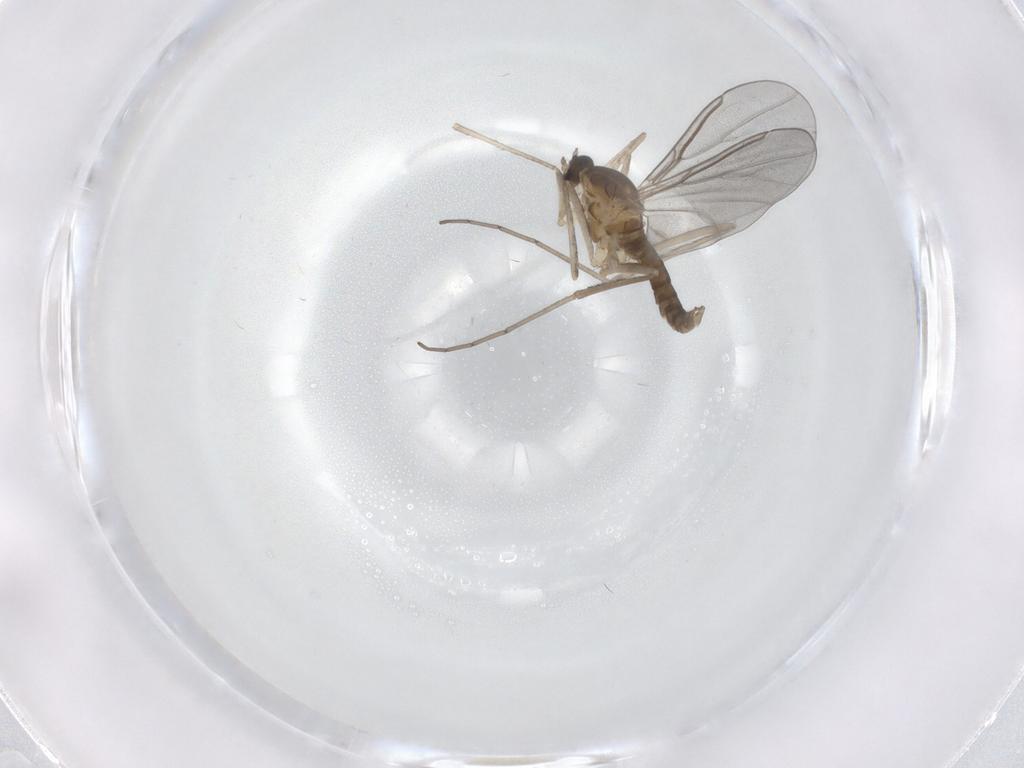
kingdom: Animalia
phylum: Arthropoda
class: Insecta
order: Diptera
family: Cecidomyiidae
